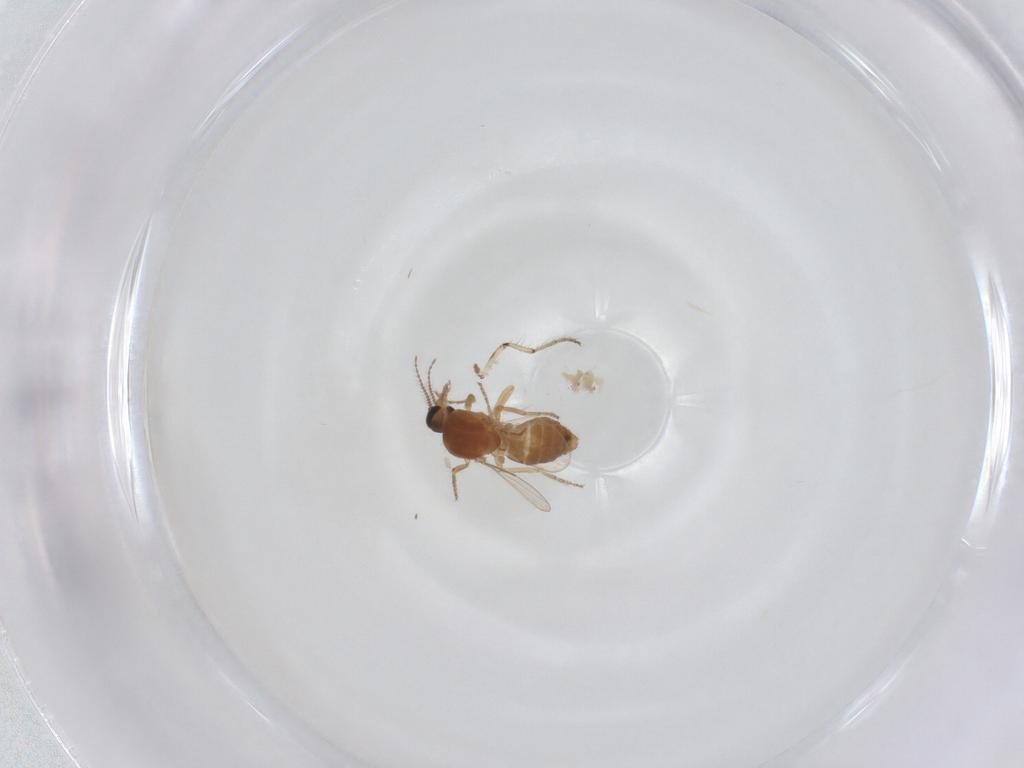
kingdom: Animalia
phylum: Arthropoda
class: Insecta
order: Diptera
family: Ceratopogonidae
